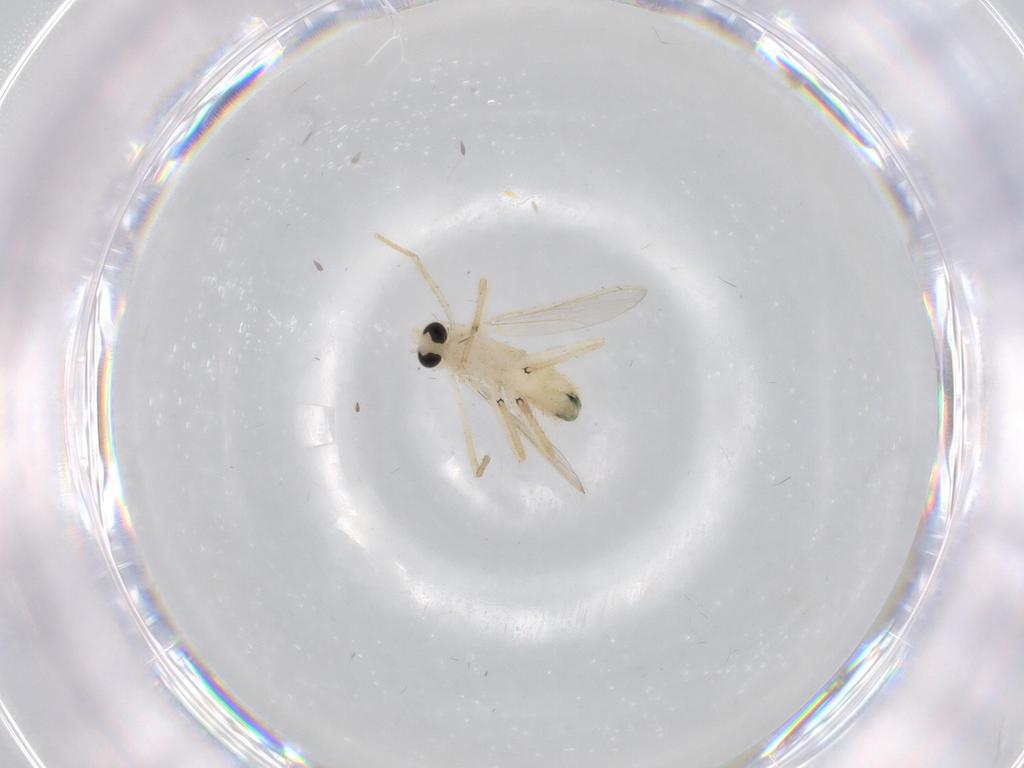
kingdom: Animalia
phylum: Arthropoda
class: Insecta
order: Diptera
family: Chironomidae
